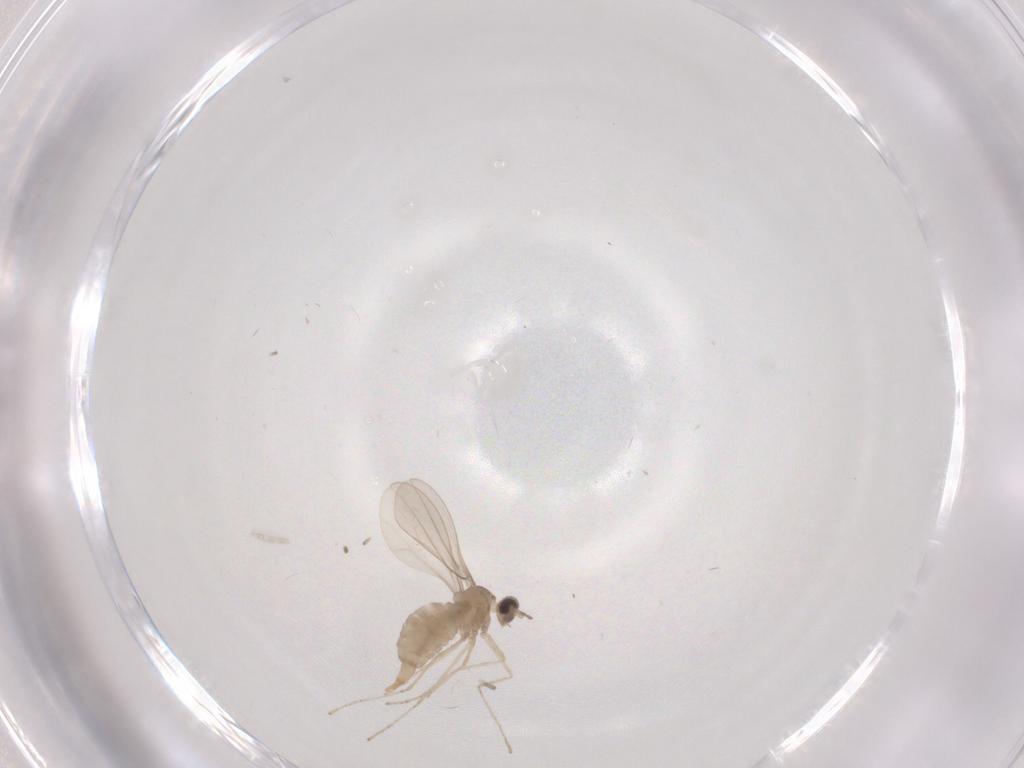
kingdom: Animalia
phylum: Arthropoda
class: Insecta
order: Diptera
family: Cecidomyiidae
